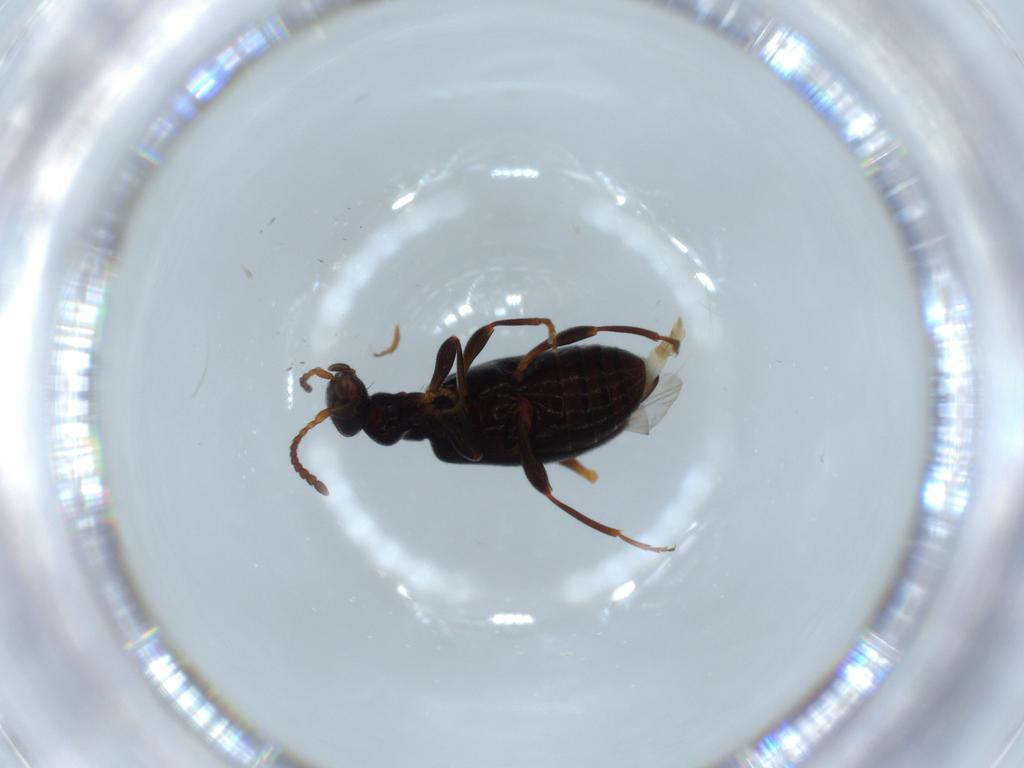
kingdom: Animalia
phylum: Arthropoda
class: Insecta
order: Coleoptera
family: Anthicidae
